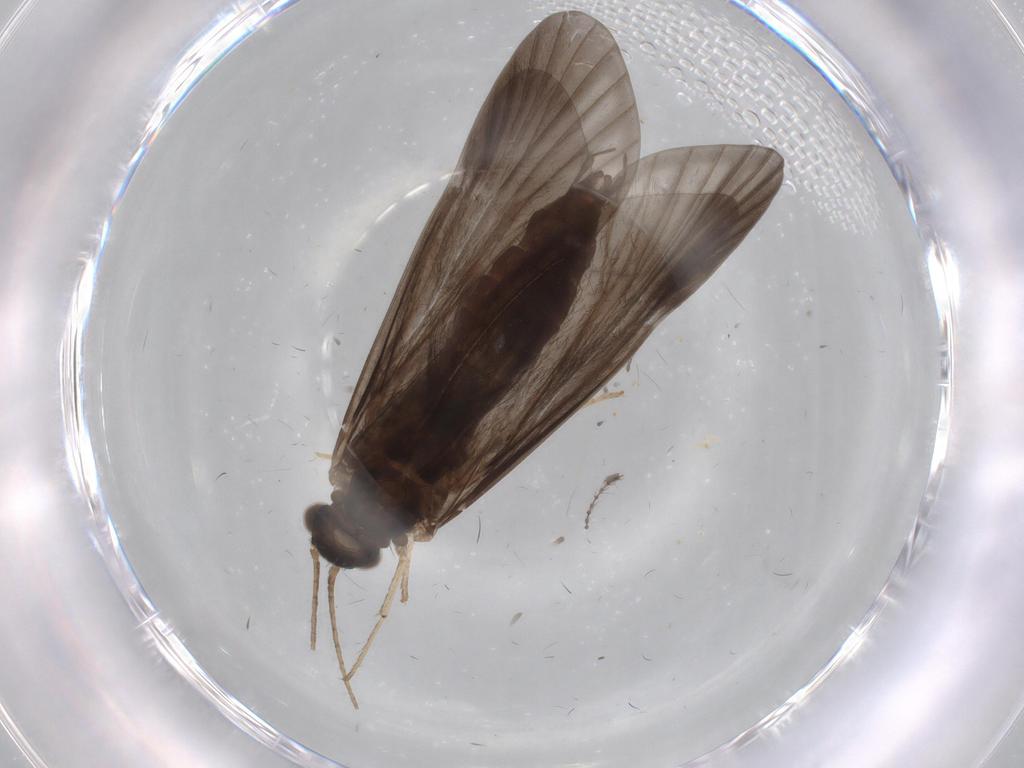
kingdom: Animalia
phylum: Arthropoda
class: Insecta
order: Trichoptera
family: Hydropsychidae
